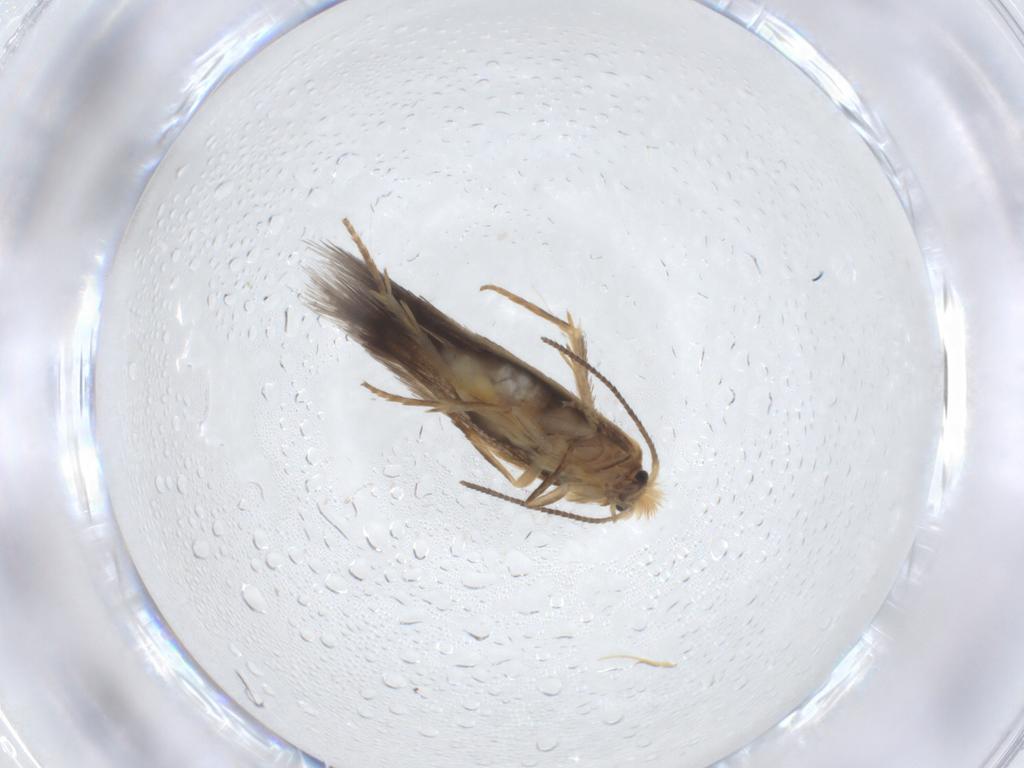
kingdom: Animalia
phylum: Arthropoda
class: Insecta
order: Lepidoptera
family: Nepticulidae
